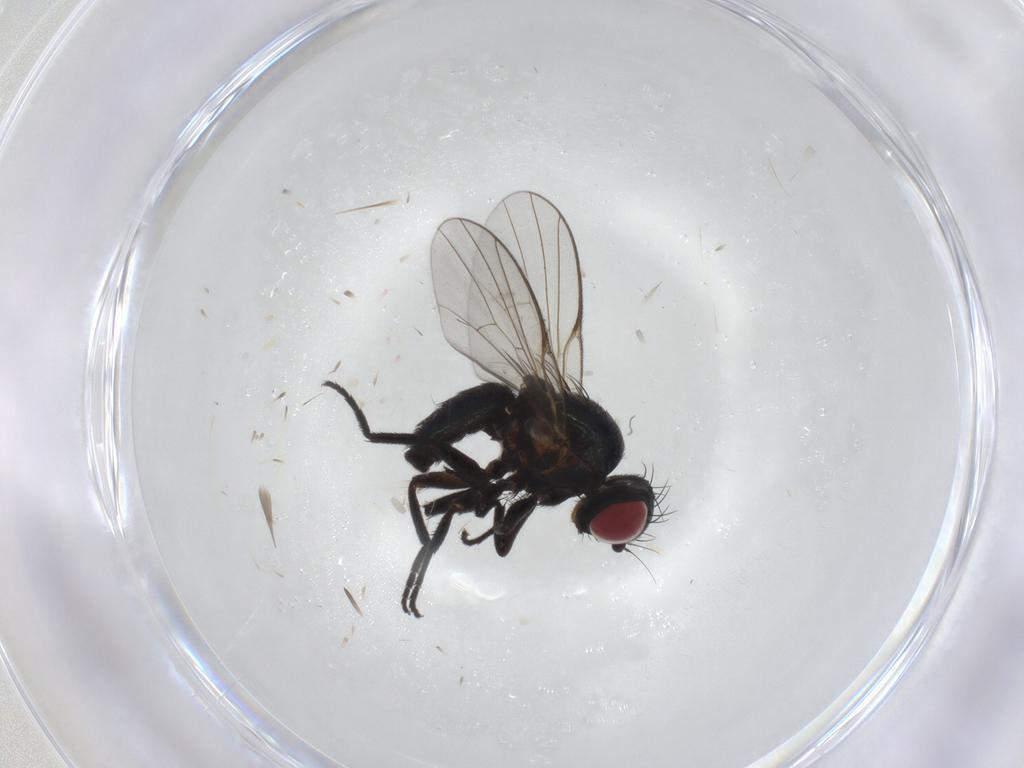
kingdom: Animalia
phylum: Arthropoda
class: Insecta
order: Diptera
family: Agromyzidae
